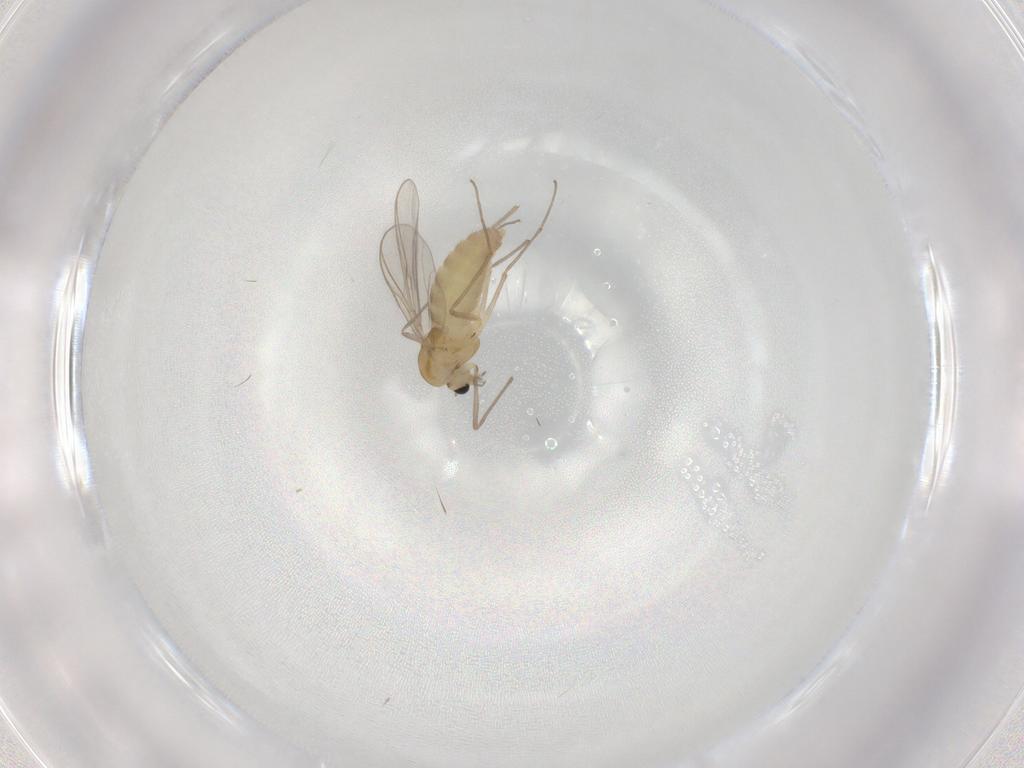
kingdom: Animalia
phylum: Arthropoda
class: Insecta
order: Diptera
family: Chironomidae
